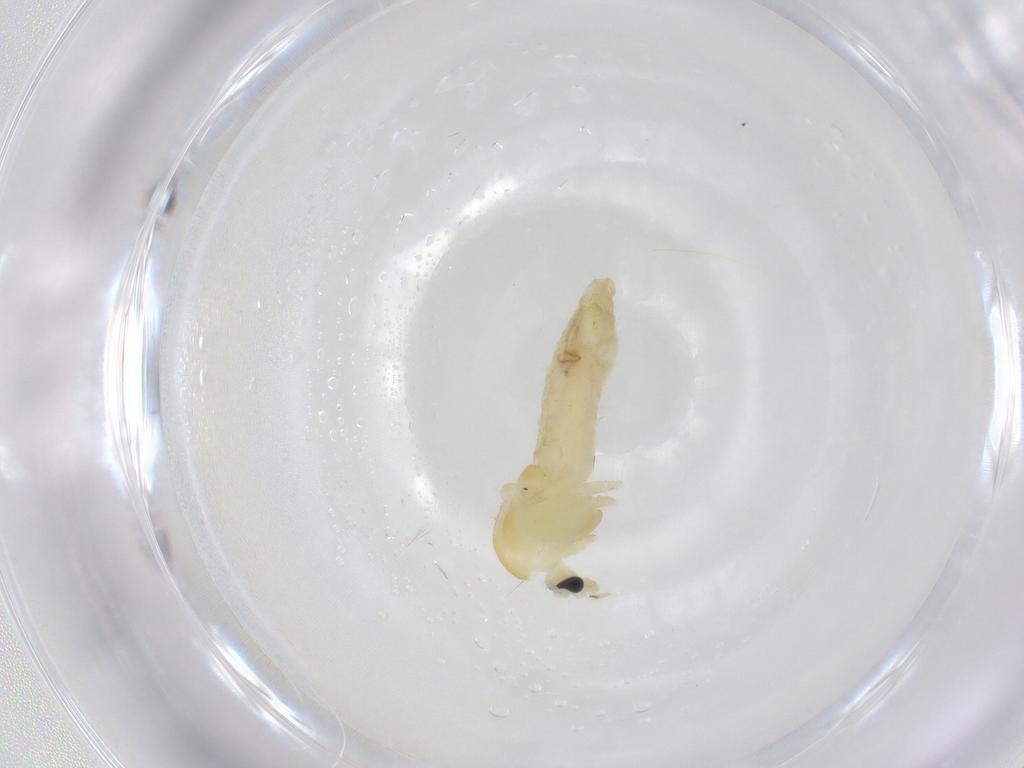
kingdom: Animalia
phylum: Arthropoda
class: Insecta
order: Diptera
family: Chironomidae
